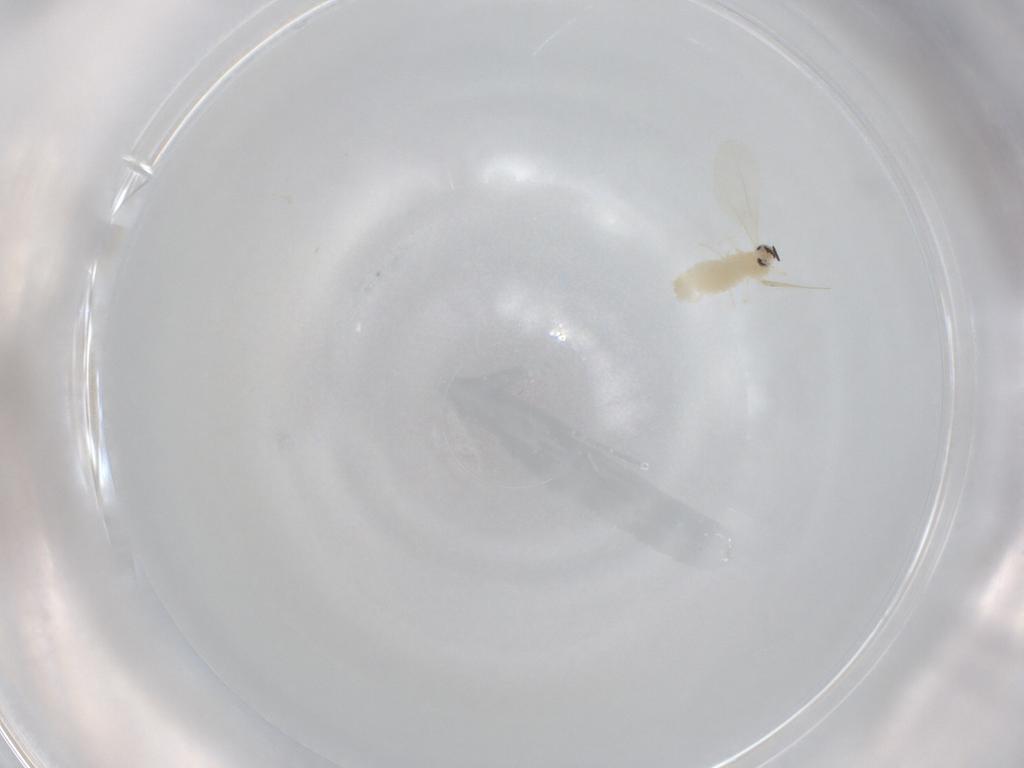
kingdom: Animalia
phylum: Arthropoda
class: Insecta
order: Diptera
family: Cecidomyiidae
